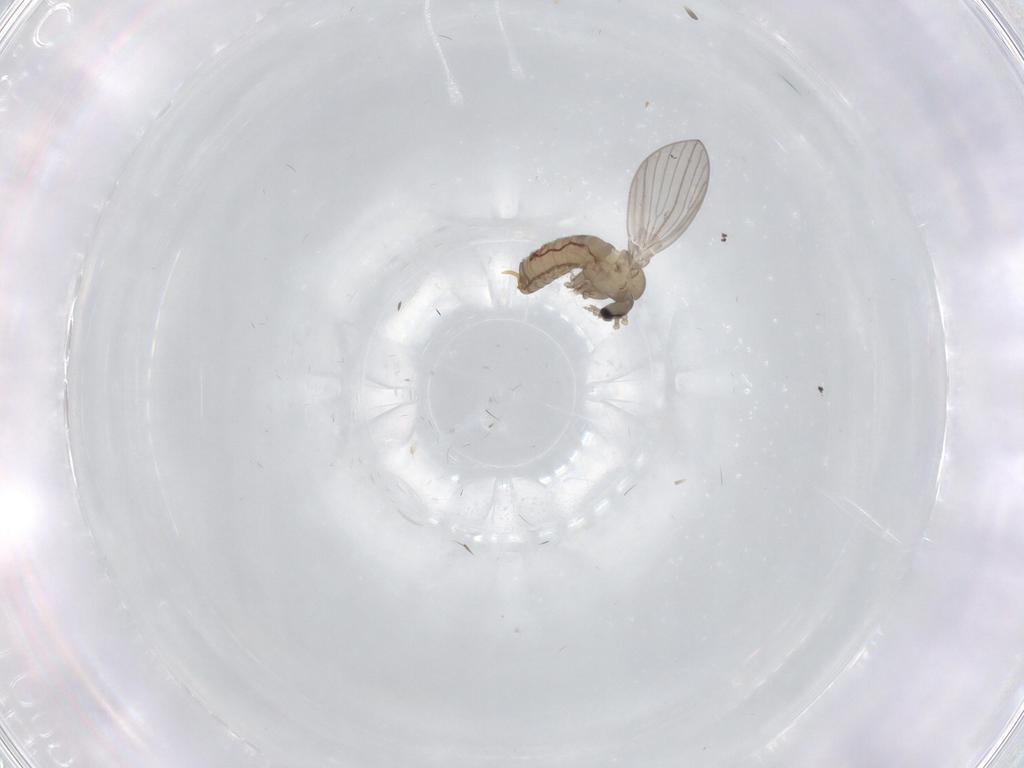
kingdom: Animalia
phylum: Arthropoda
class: Insecta
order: Diptera
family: Psychodidae
